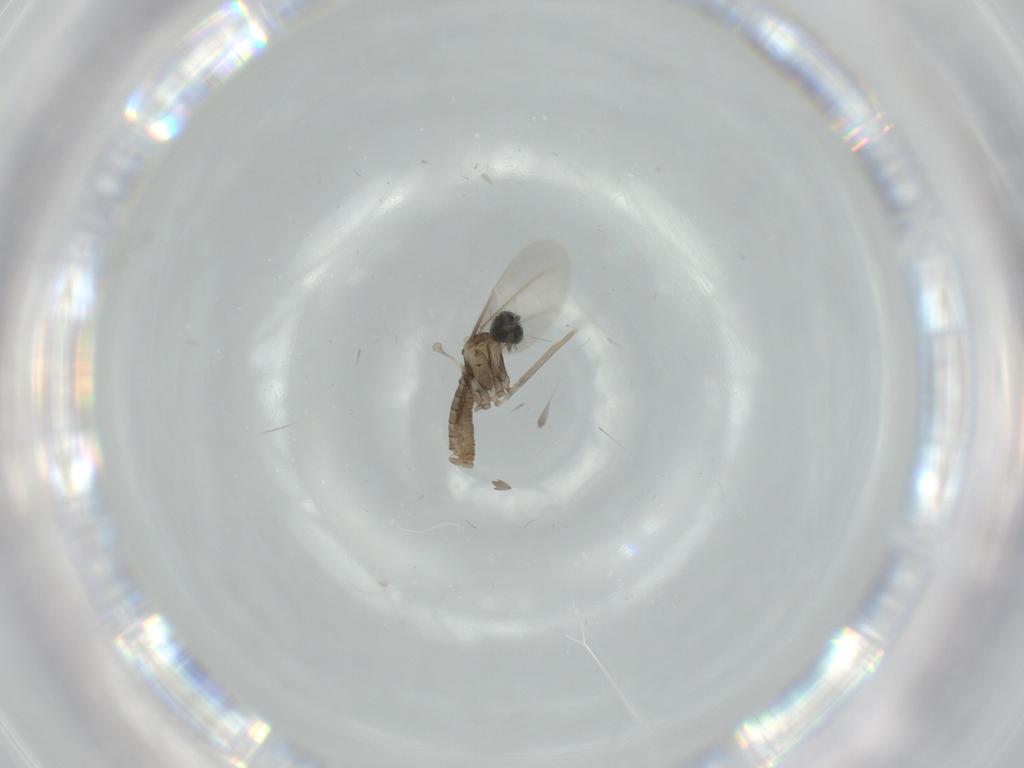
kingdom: Animalia
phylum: Arthropoda
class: Insecta
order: Diptera
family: Cecidomyiidae
